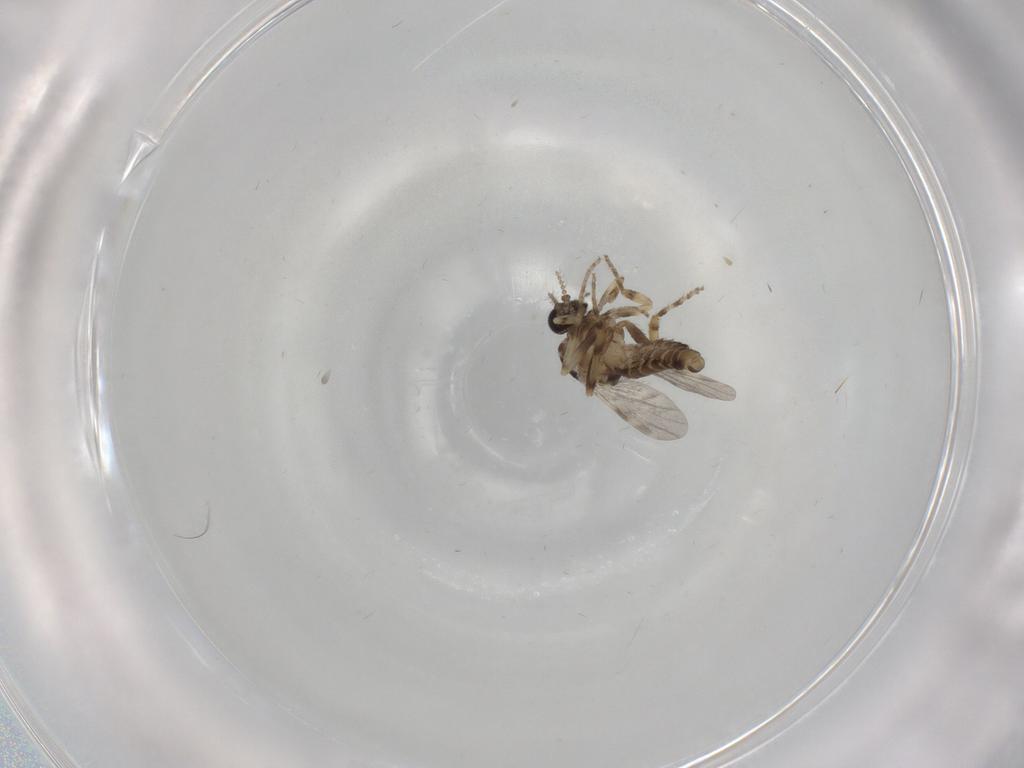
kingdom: Animalia
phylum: Arthropoda
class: Insecta
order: Diptera
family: Ceratopogonidae
